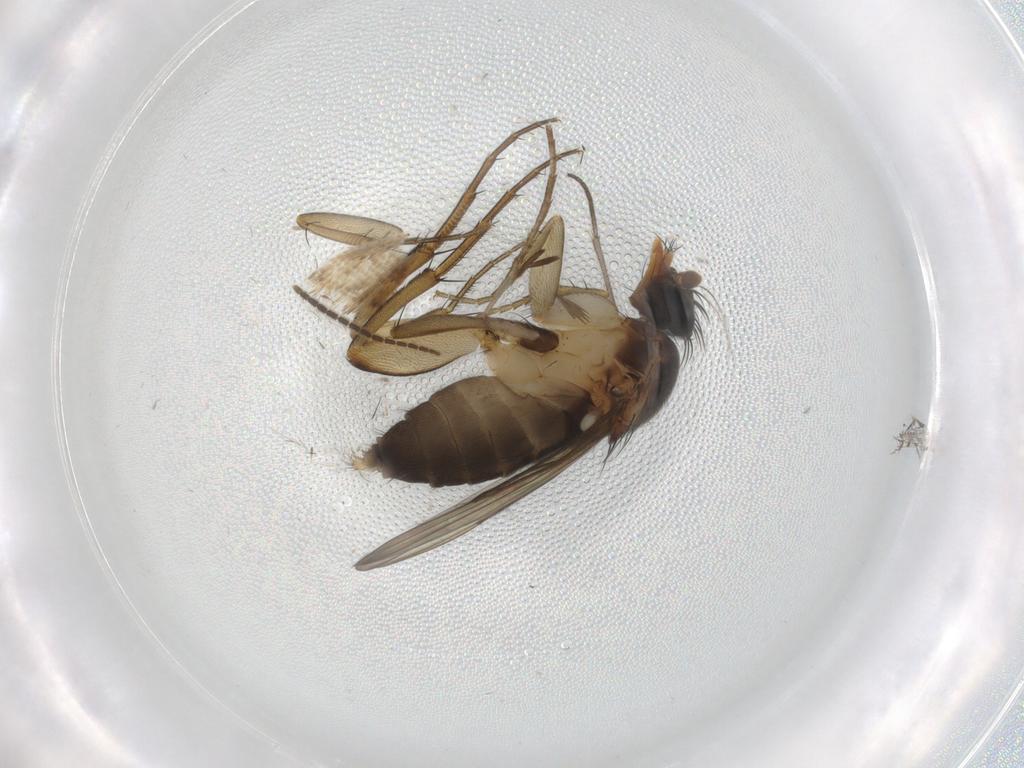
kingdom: Animalia
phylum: Arthropoda
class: Insecta
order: Diptera
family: Phoridae
